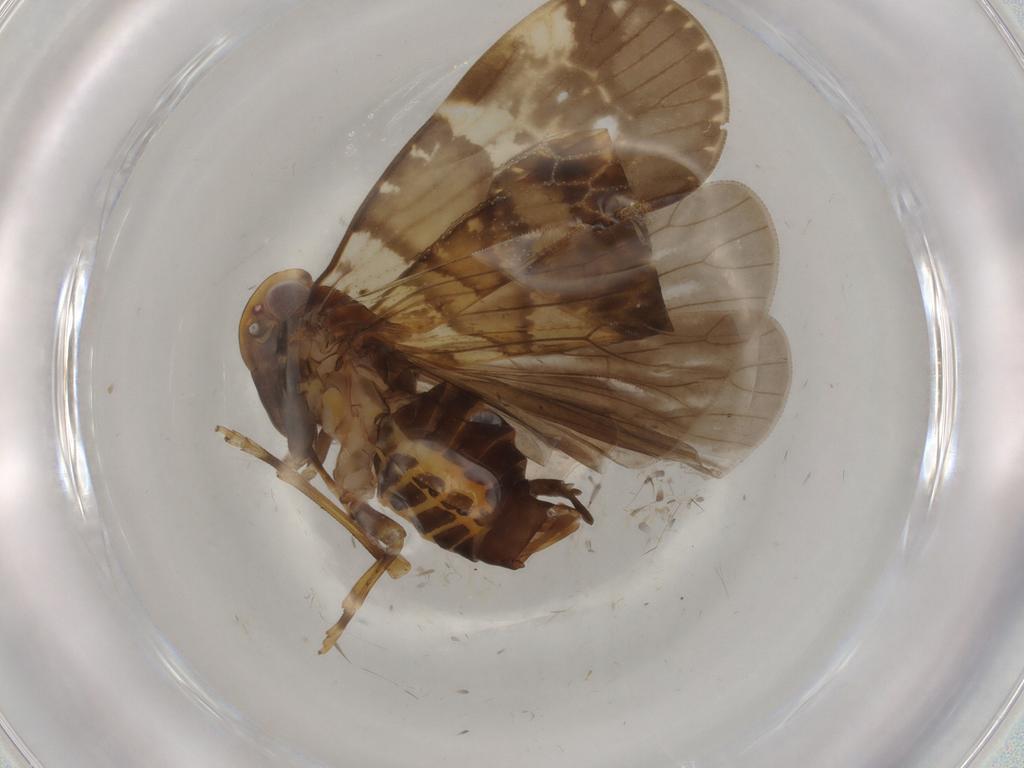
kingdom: Animalia
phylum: Arthropoda
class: Insecta
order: Hemiptera
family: Cixiidae
